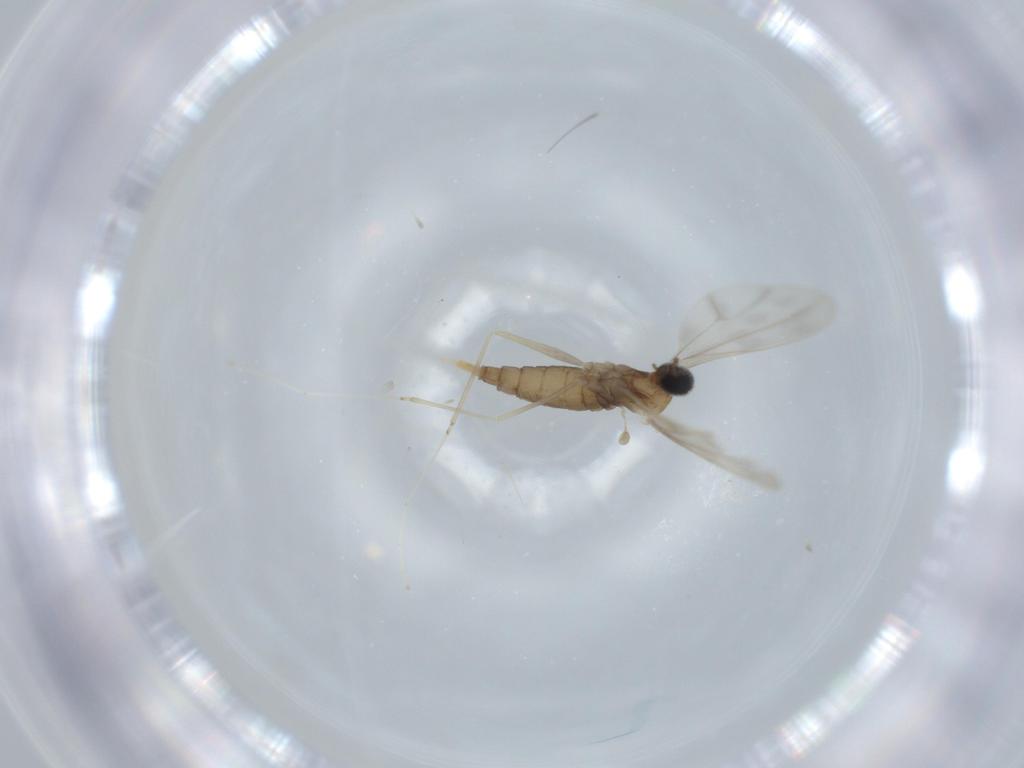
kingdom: Animalia
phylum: Arthropoda
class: Insecta
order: Diptera
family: Cecidomyiidae
